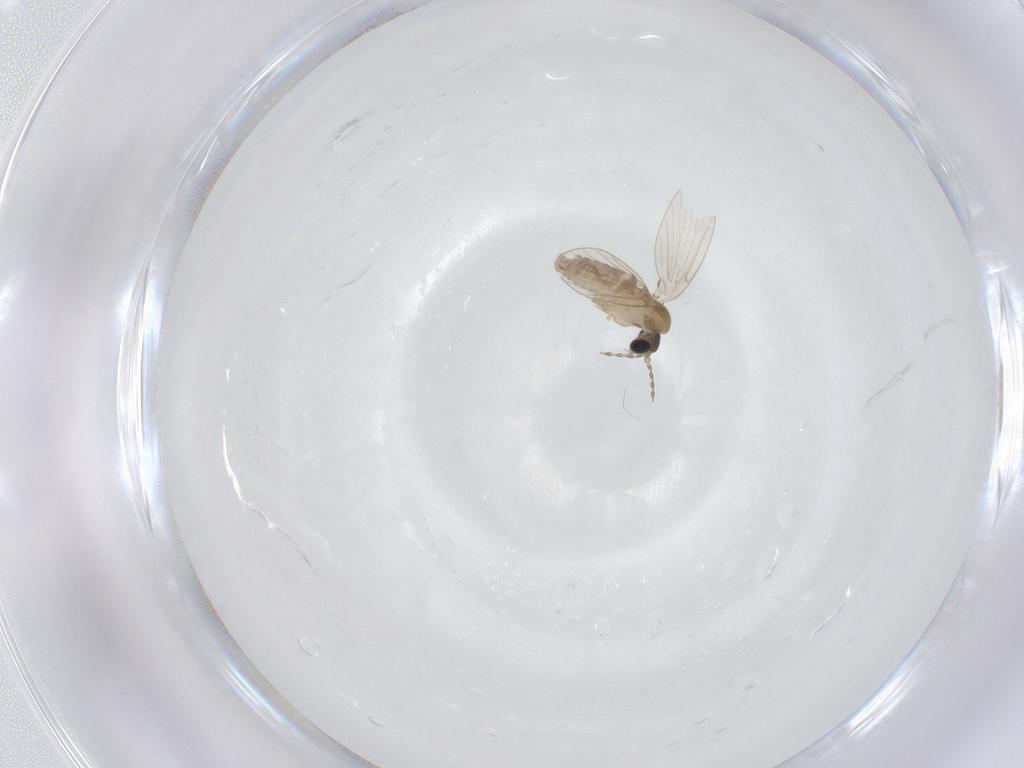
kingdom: Animalia
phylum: Arthropoda
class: Insecta
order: Diptera
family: Psychodidae
